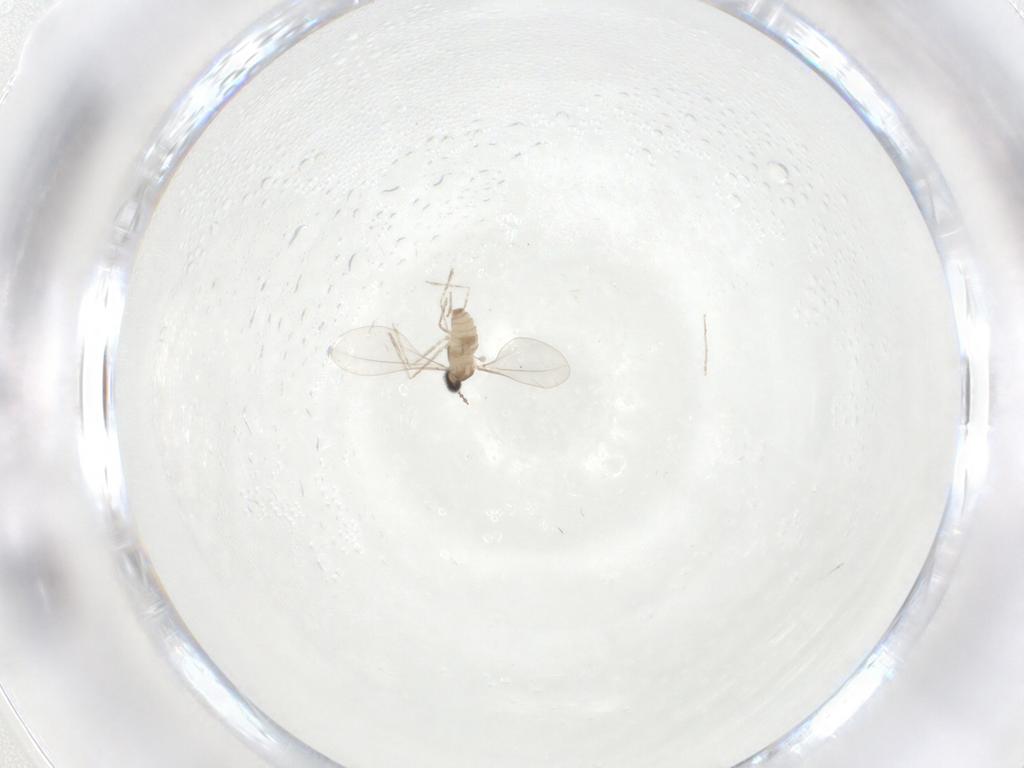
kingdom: Animalia
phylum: Arthropoda
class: Insecta
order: Diptera
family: Cecidomyiidae
